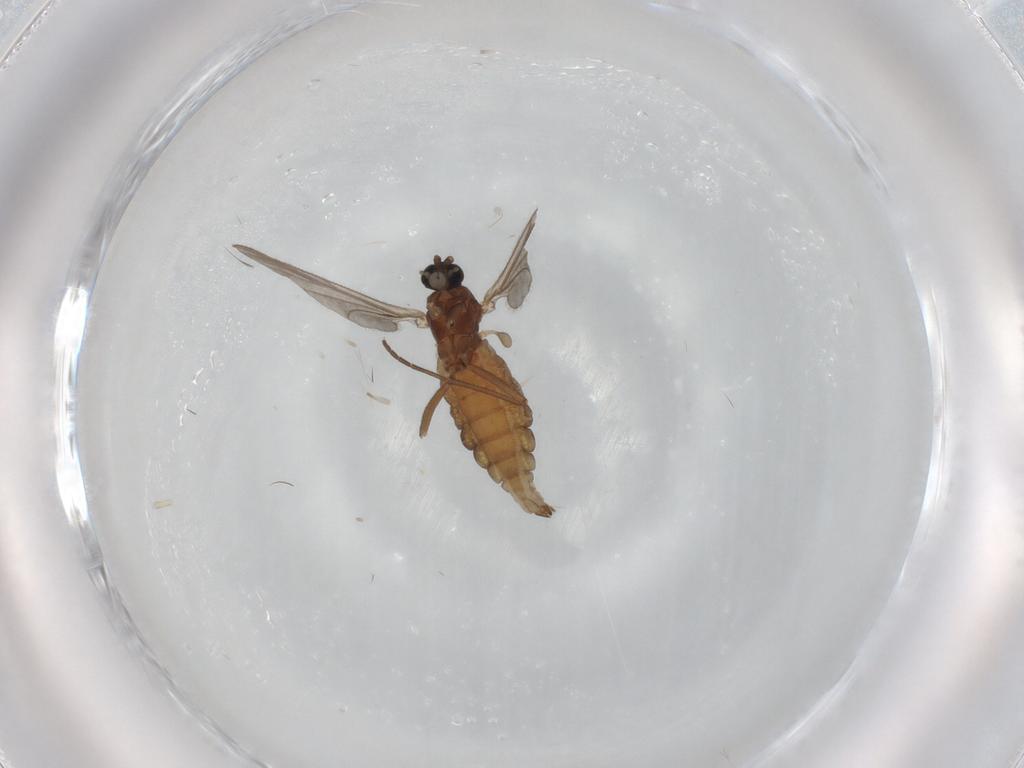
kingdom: Animalia
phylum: Arthropoda
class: Insecta
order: Diptera
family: Sciaridae
